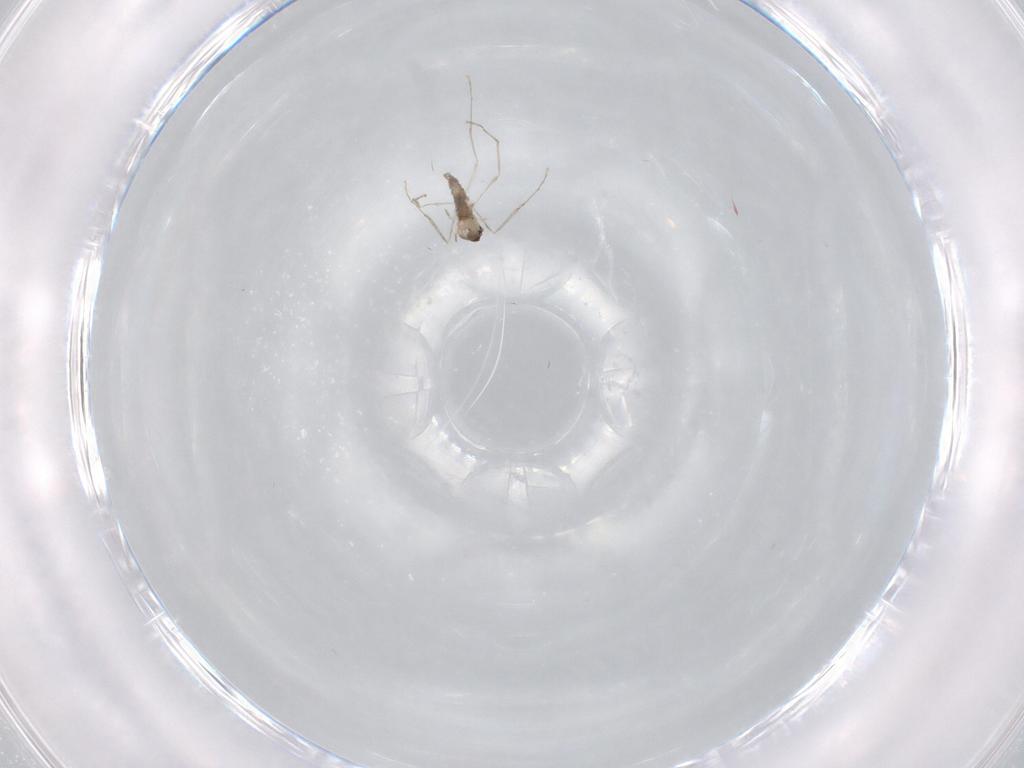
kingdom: Animalia
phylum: Arthropoda
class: Insecta
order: Diptera
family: Cecidomyiidae
